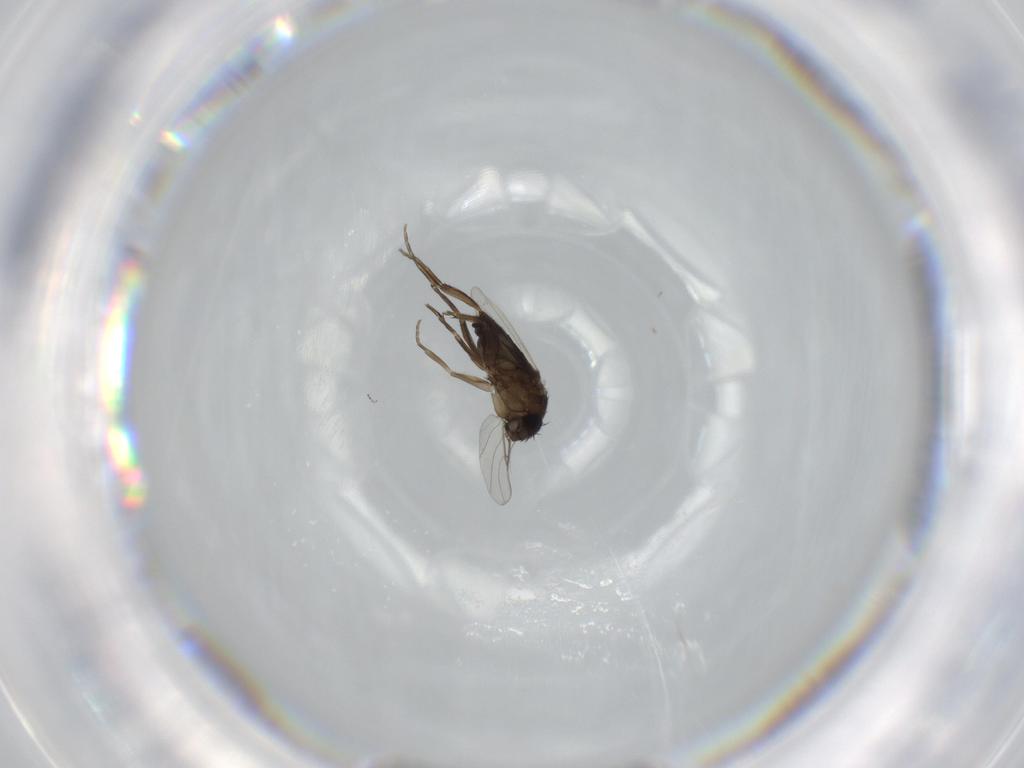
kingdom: Animalia
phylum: Arthropoda
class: Insecta
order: Diptera
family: Phoridae
